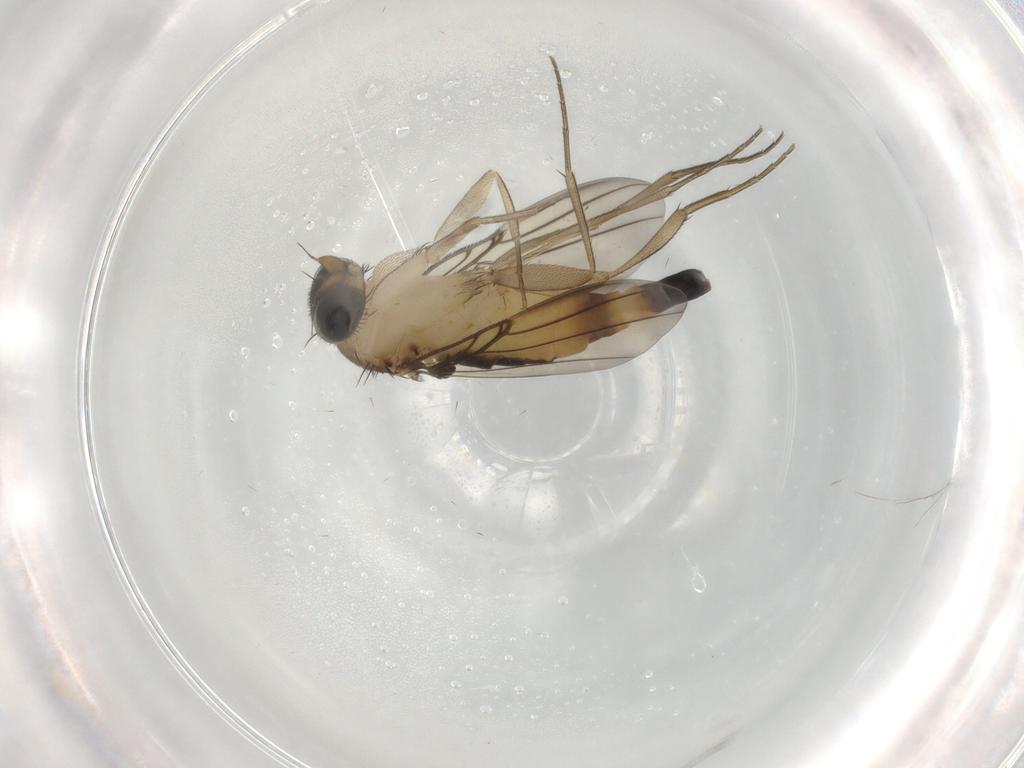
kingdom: Animalia
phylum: Arthropoda
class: Insecta
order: Diptera
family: Phoridae
